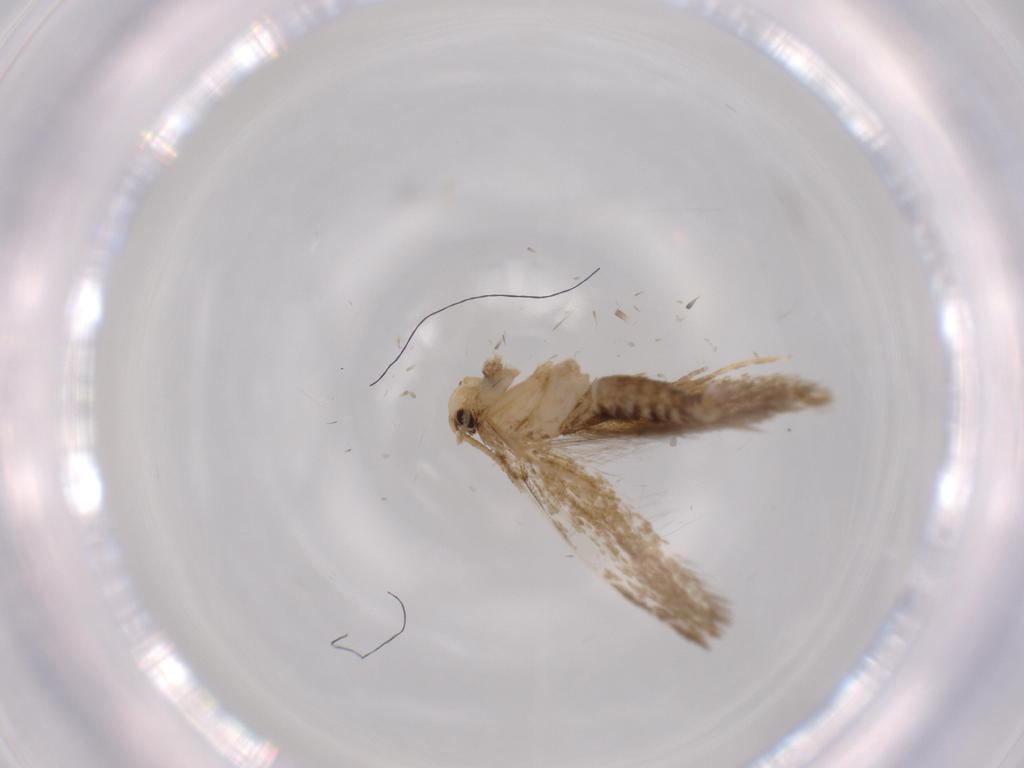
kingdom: Animalia
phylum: Arthropoda
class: Insecta
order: Lepidoptera
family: Tineidae
